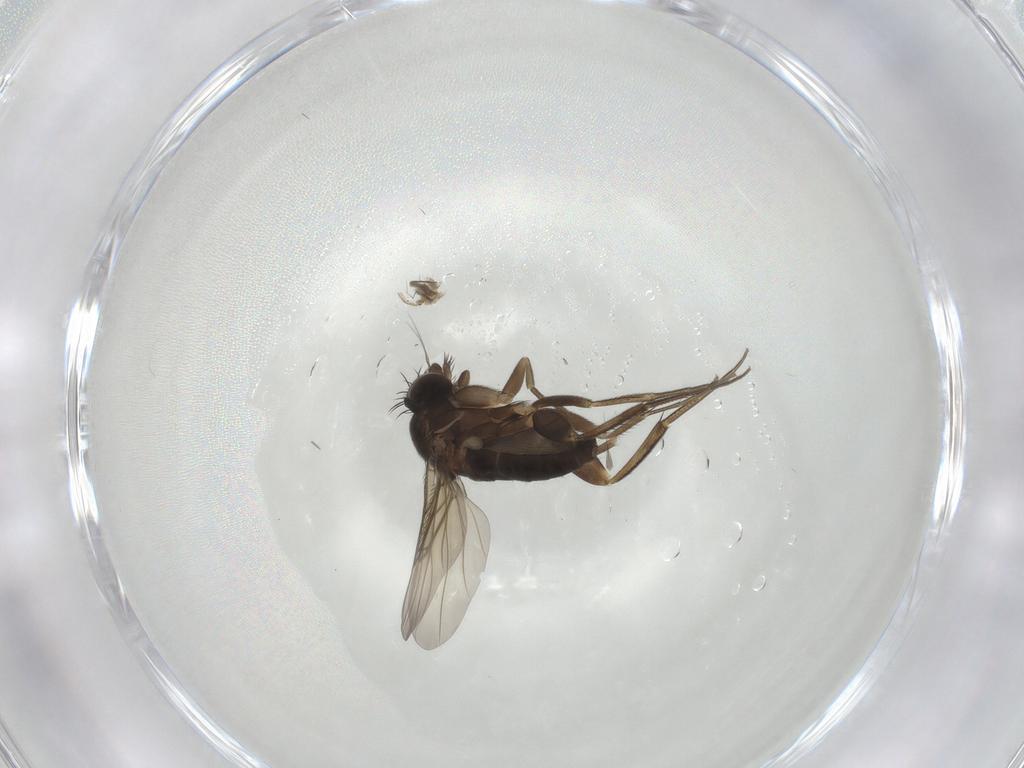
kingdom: Animalia
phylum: Arthropoda
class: Insecta
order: Diptera
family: Phoridae
